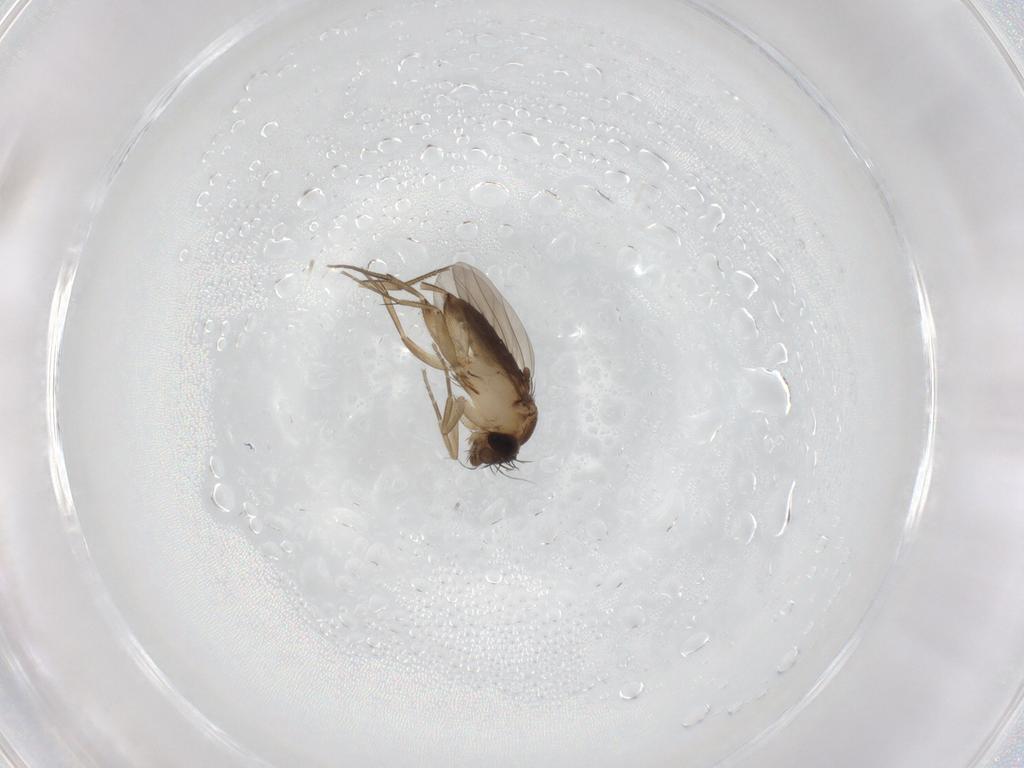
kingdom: Animalia
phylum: Arthropoda
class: Insecta
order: Diptera
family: Phoridae
